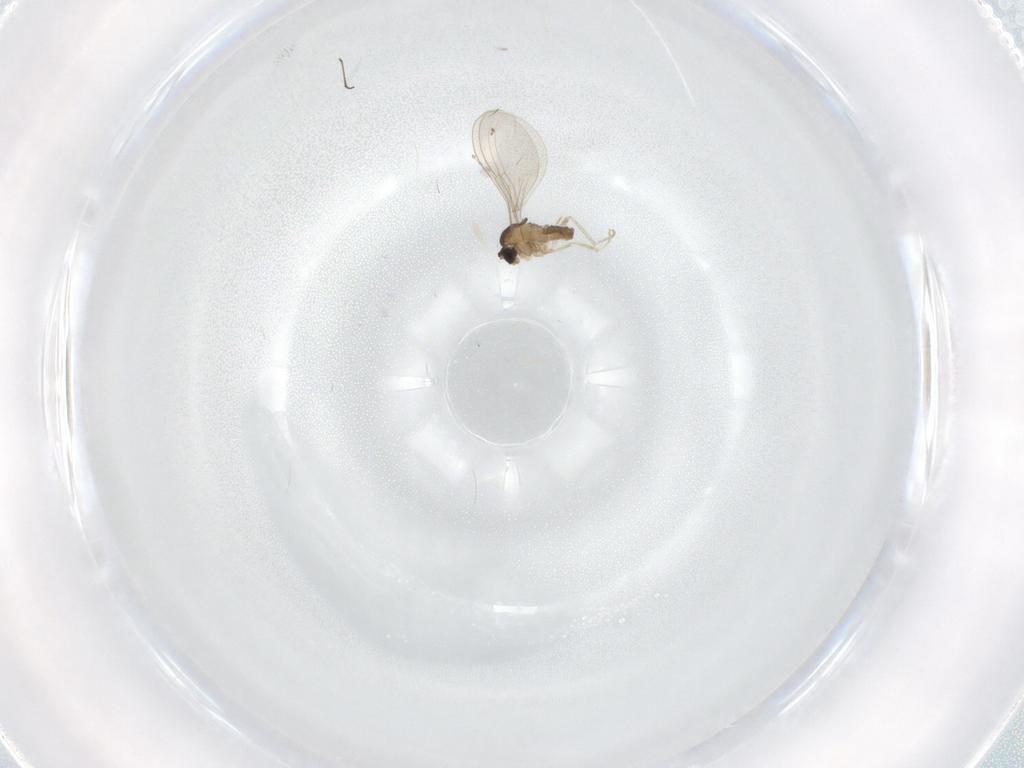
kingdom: Animalia
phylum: Arthropoda
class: Insecta
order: Diptera
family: Cecidomyiidae
